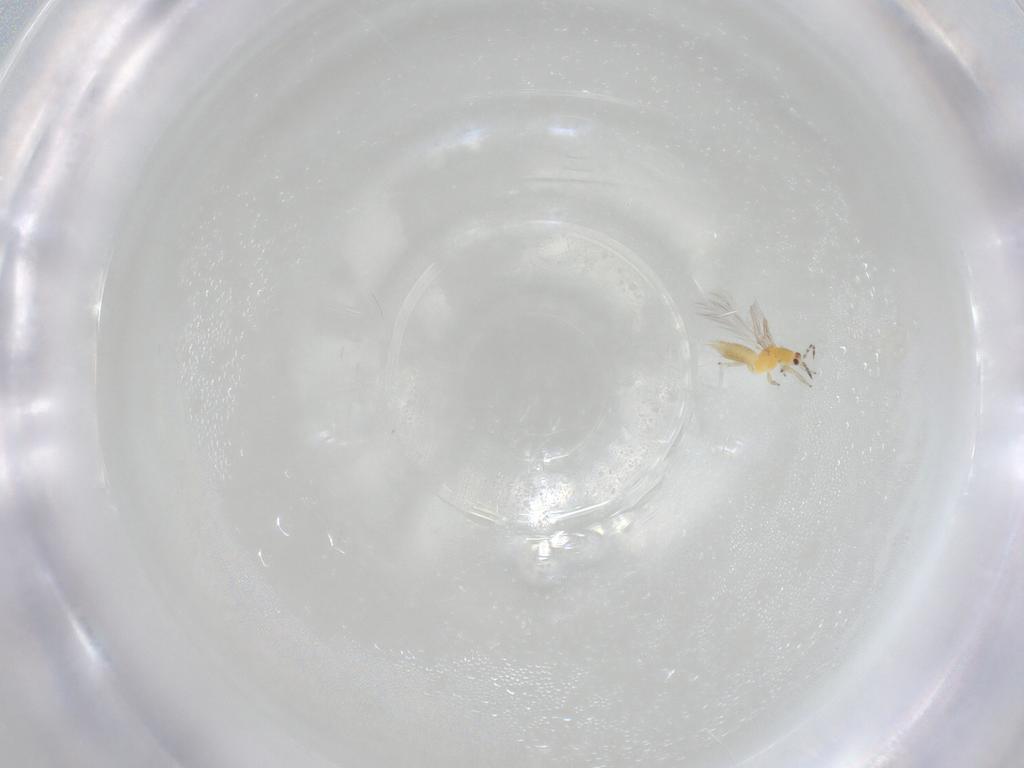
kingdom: Animalia
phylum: Arthropoda
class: Insecta
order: Thysanoptera
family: Thripidae
